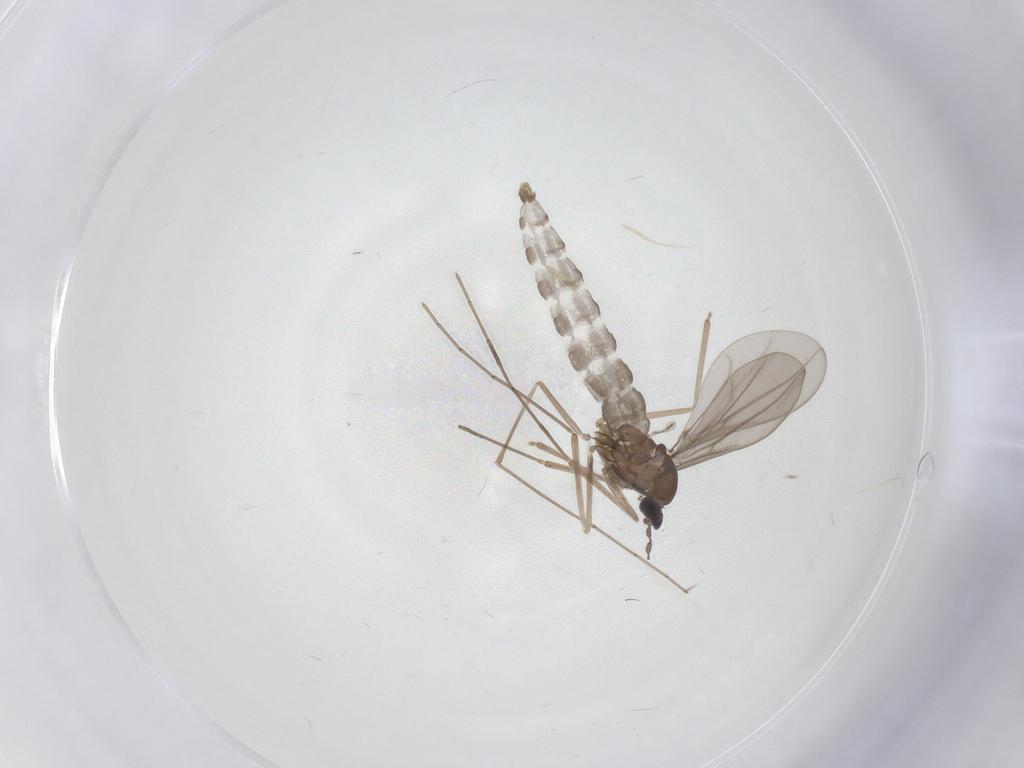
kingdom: Animalia
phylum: Arthropoda
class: Insecta
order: Diptera
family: Ceratopogonidae
